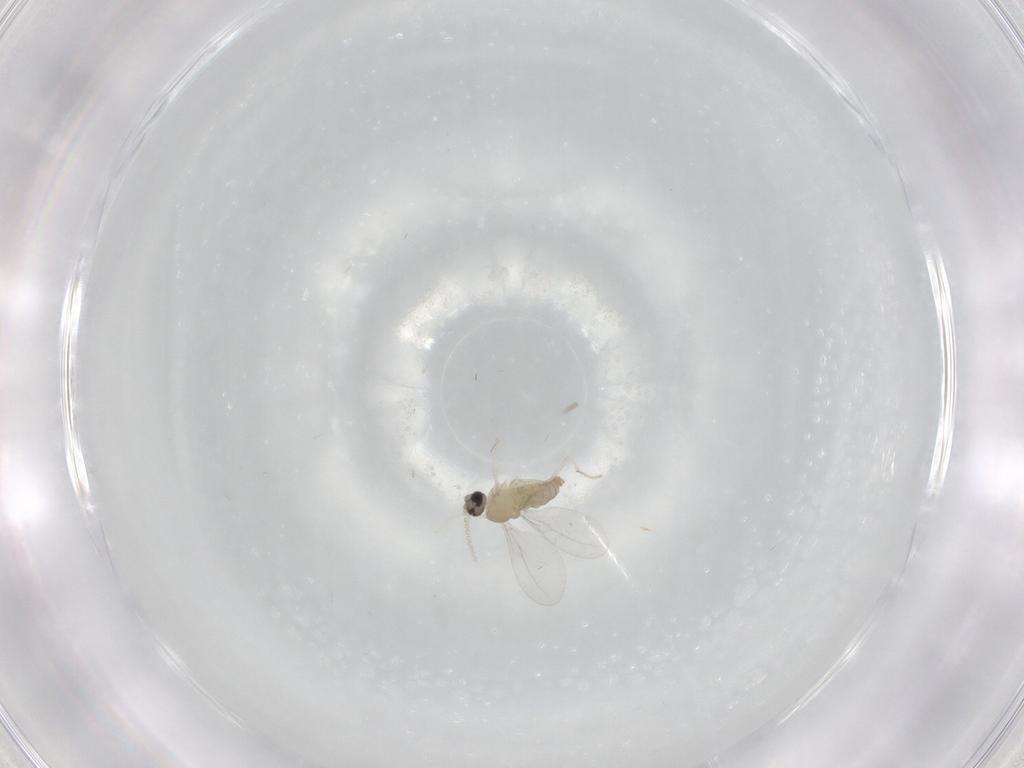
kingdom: Animalia
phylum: Arthropoda
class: Insecta
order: Diptera
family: Cecidomyiidae
